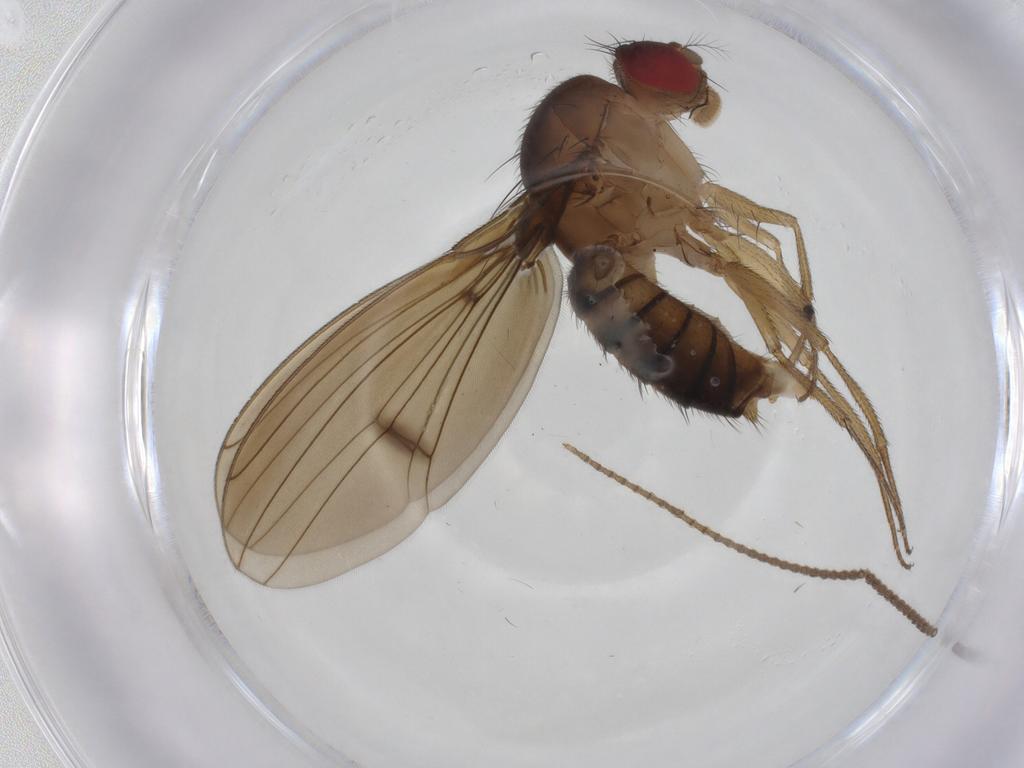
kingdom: Animalia
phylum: Arthropoda
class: Insecta
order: Diptera
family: Drosophilidae
